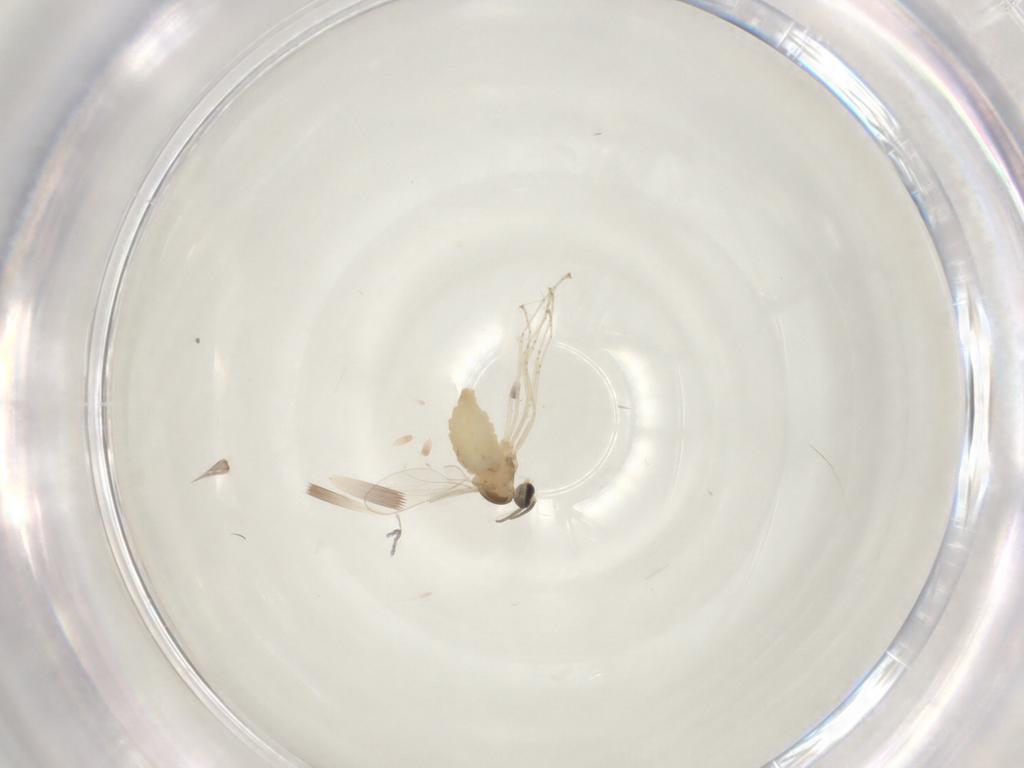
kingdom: Animalia
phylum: Arthropoda
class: Insecta
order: Diptera
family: Cecidomyiidae
